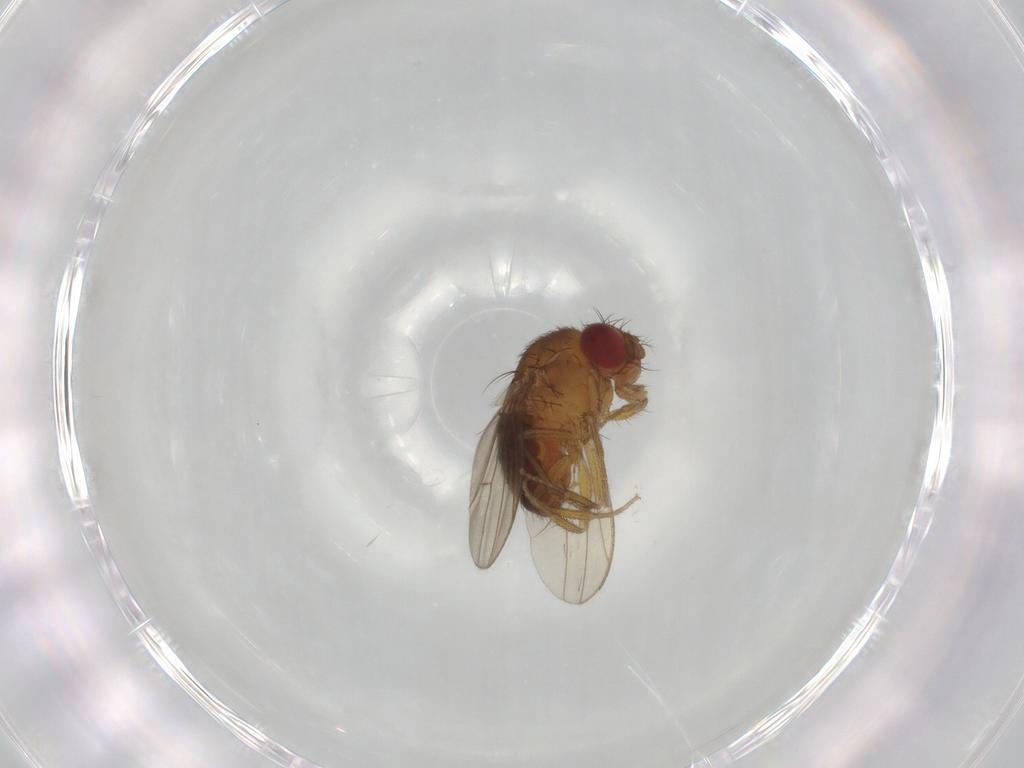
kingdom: Animalia
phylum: Arthropoda
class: Insecta
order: Diptera
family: Drosophilidae
